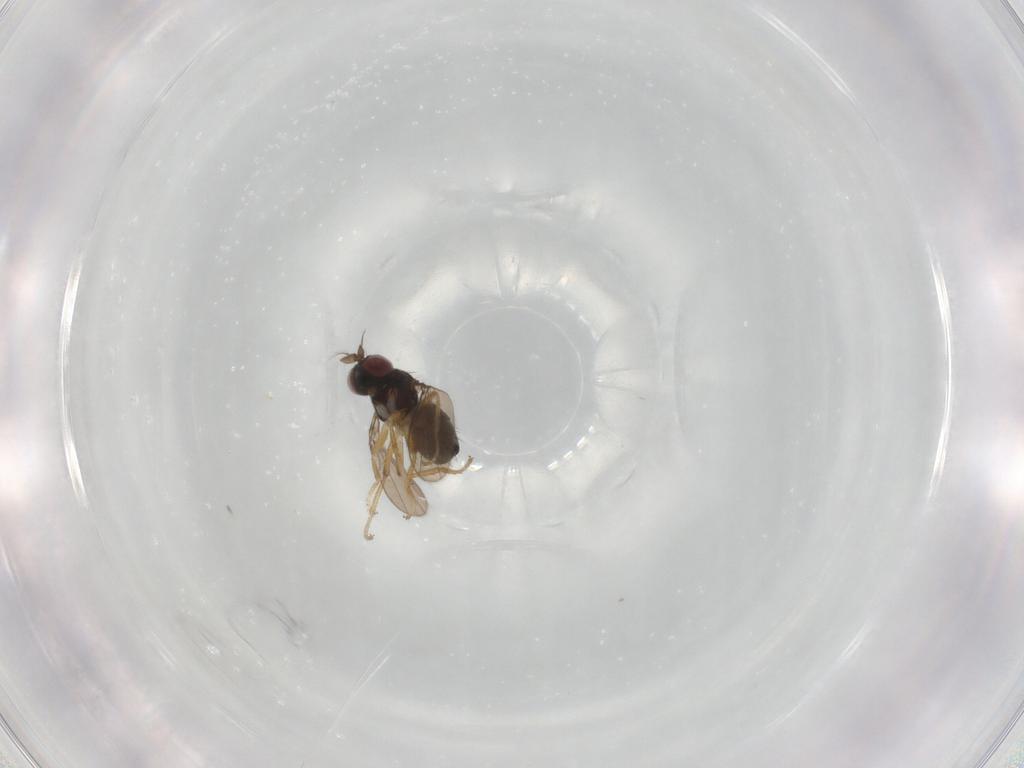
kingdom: Animalia
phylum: Arthropoda
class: Insecta
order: Diptera
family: Ephydridae
